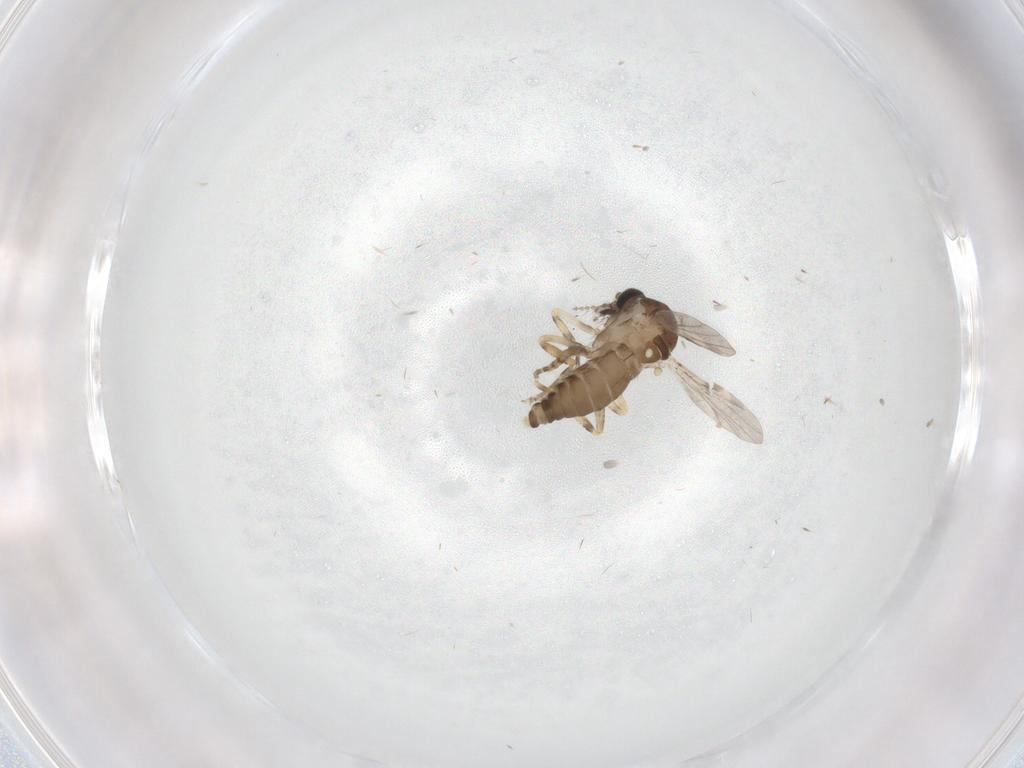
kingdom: Animalia
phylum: Arthropoda
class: Insecta
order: Diptera
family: Ceratopogonidae
